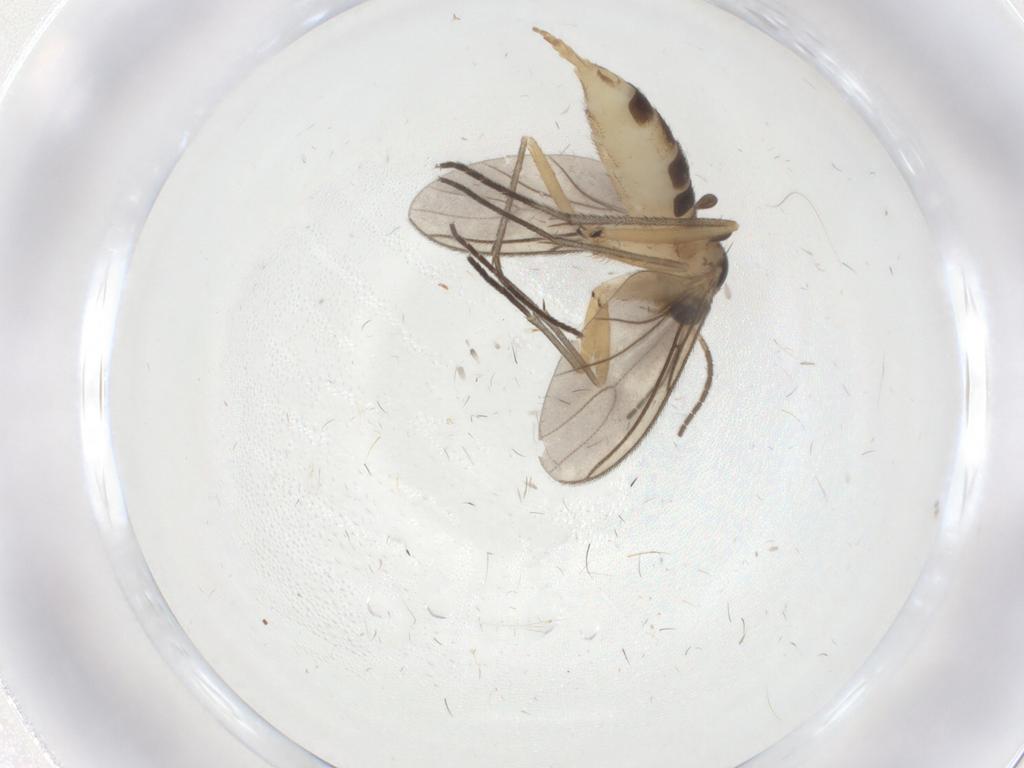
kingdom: Animalia
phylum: Arthropoda
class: Insecta
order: Diptera
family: Sciaridae
